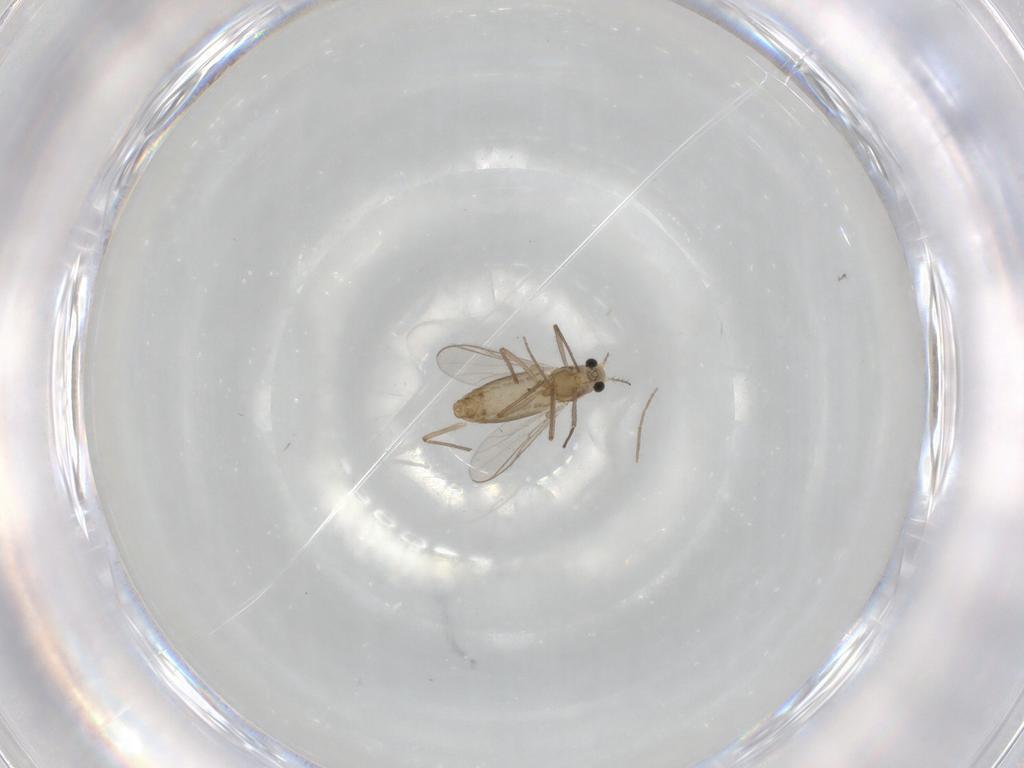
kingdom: Animalia
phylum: Arthropoda
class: Insecta
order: Diptera
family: Chironomidae
